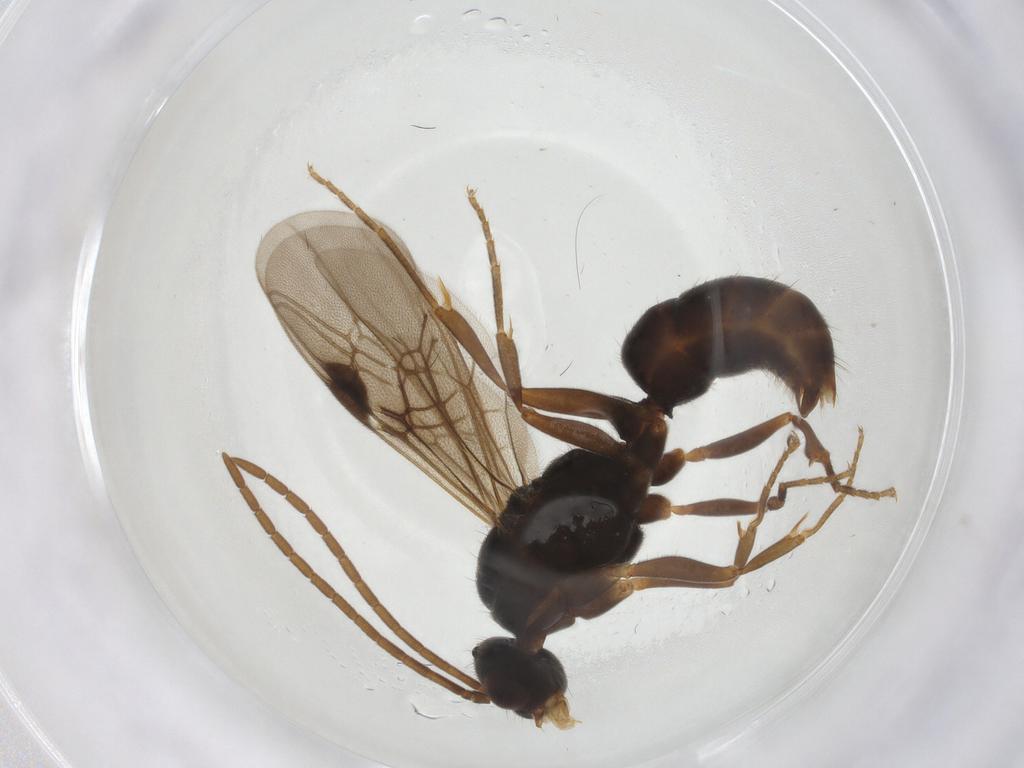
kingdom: Animalia
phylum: Arthropoda
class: Insecta
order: Hymenoptera
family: Formicidae
